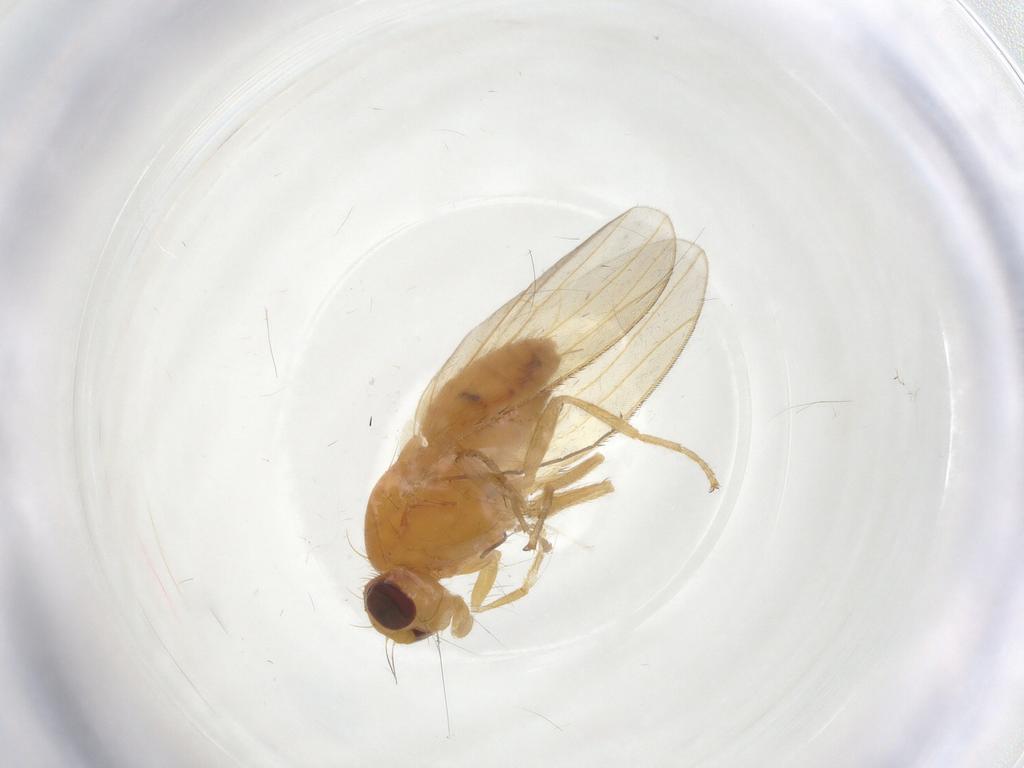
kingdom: Animalia
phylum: Arthropoda
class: Insecta
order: Diptera
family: Heleomyzidae
